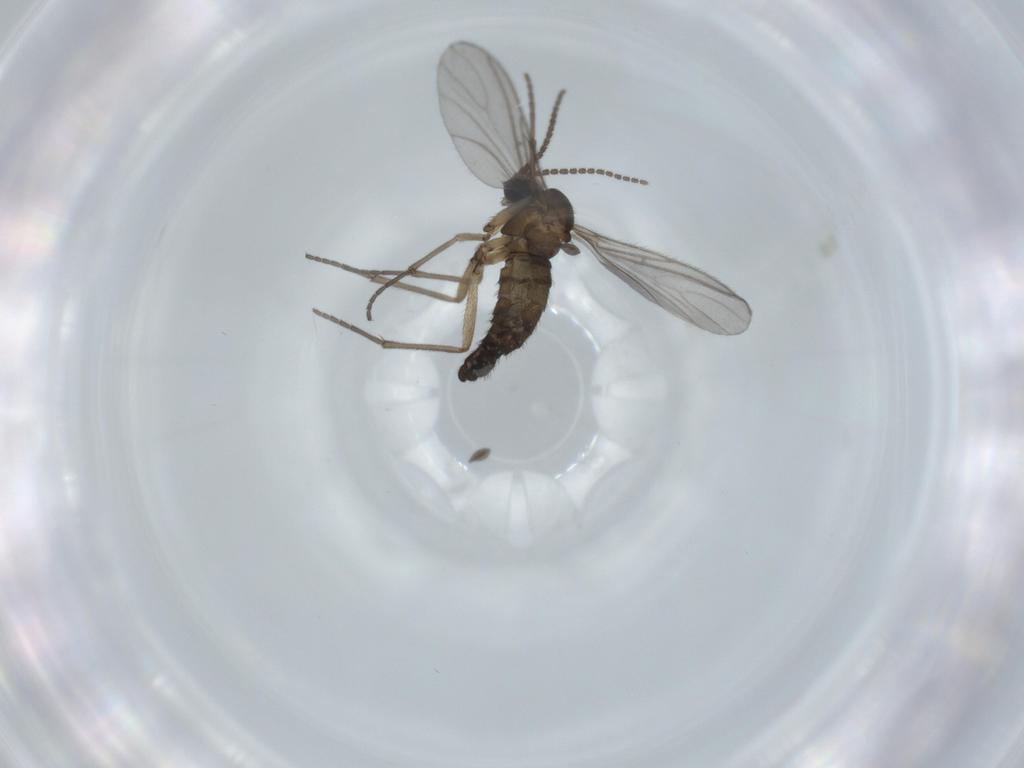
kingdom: Animalia
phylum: Arthropoda
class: Insecta
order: Diptera
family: Sciaridae
